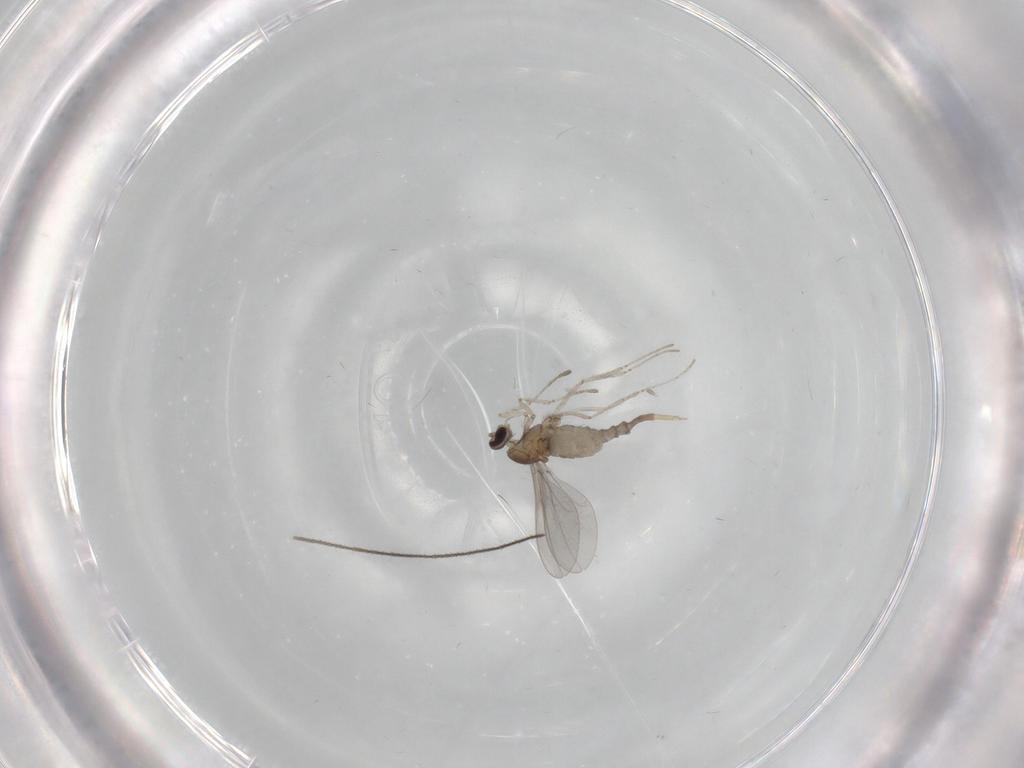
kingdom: Animalia
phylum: Arthropoda
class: Insecta
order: Diptera
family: Cecidomyiidae
